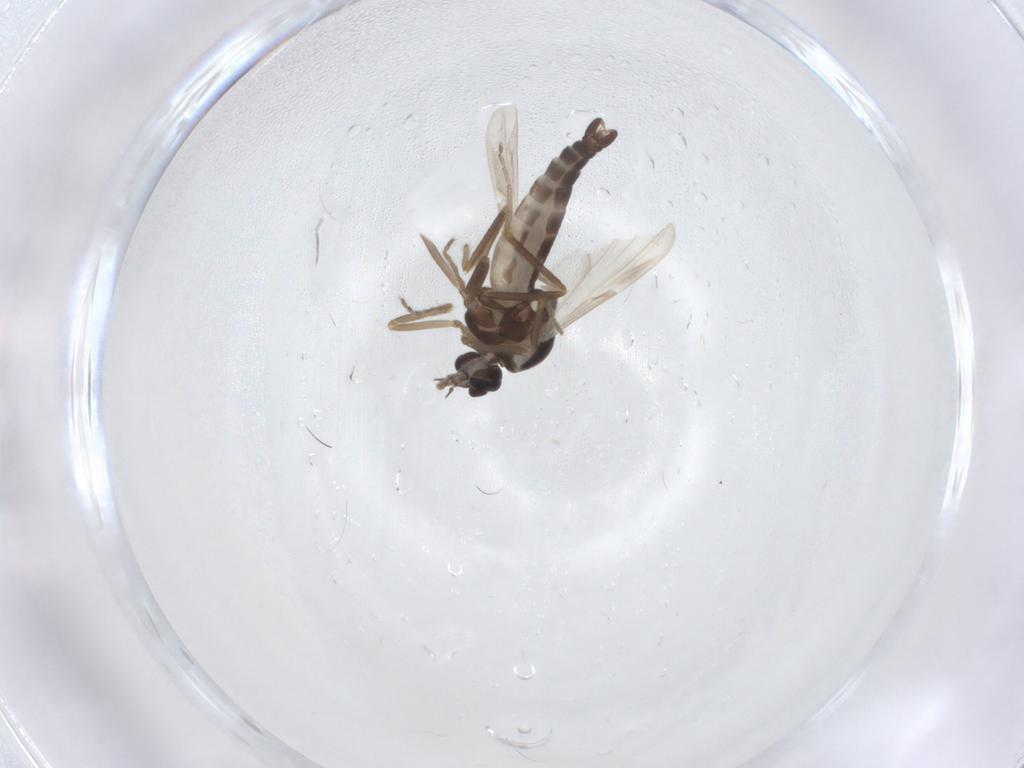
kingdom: Animalia
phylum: Arthropoda
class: Insecta
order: Diptera
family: Ceratopogonidae
